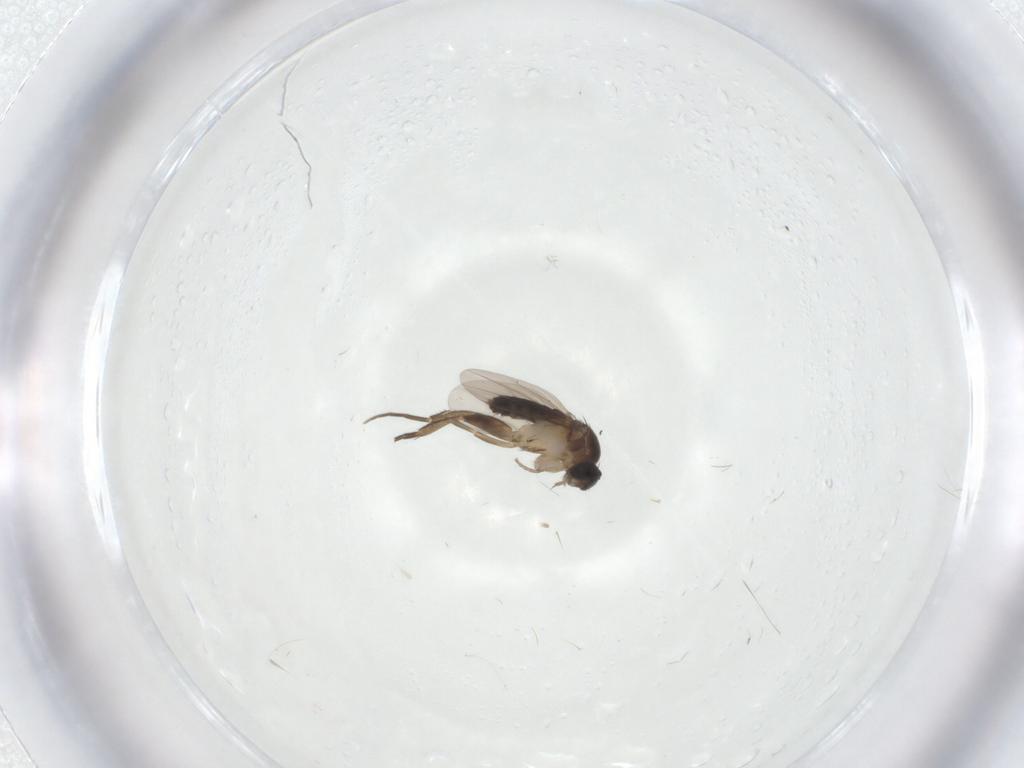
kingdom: Animalia
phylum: Arthropoda
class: Insecta
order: Diptera
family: Phoridae
